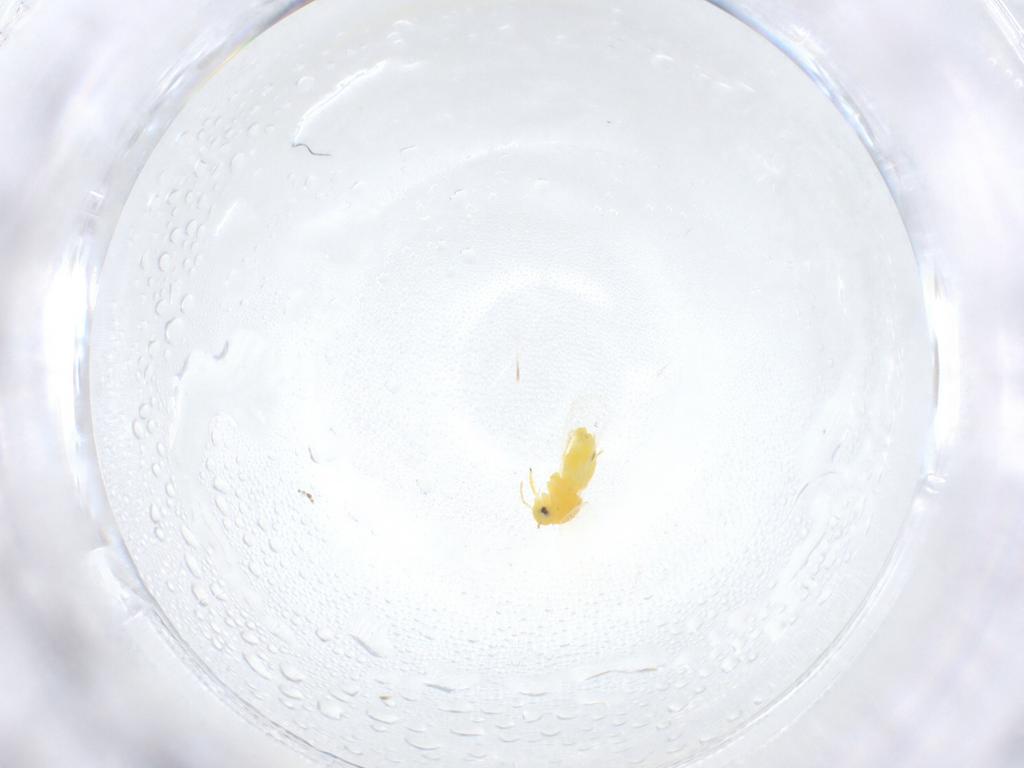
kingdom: Animalia
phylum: Arthropoda
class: Insecta
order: Hemiptera
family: Aleyrodidae
